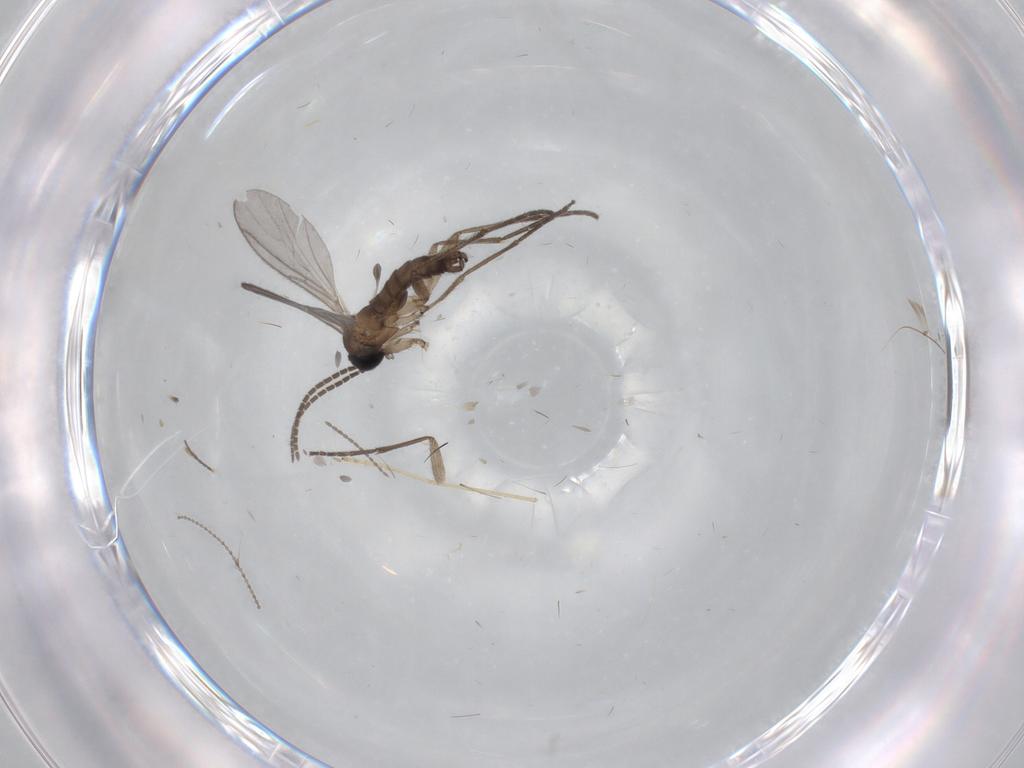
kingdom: Animalia
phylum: Arthropoda
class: Insecta
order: Diptera
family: Sciaridae
